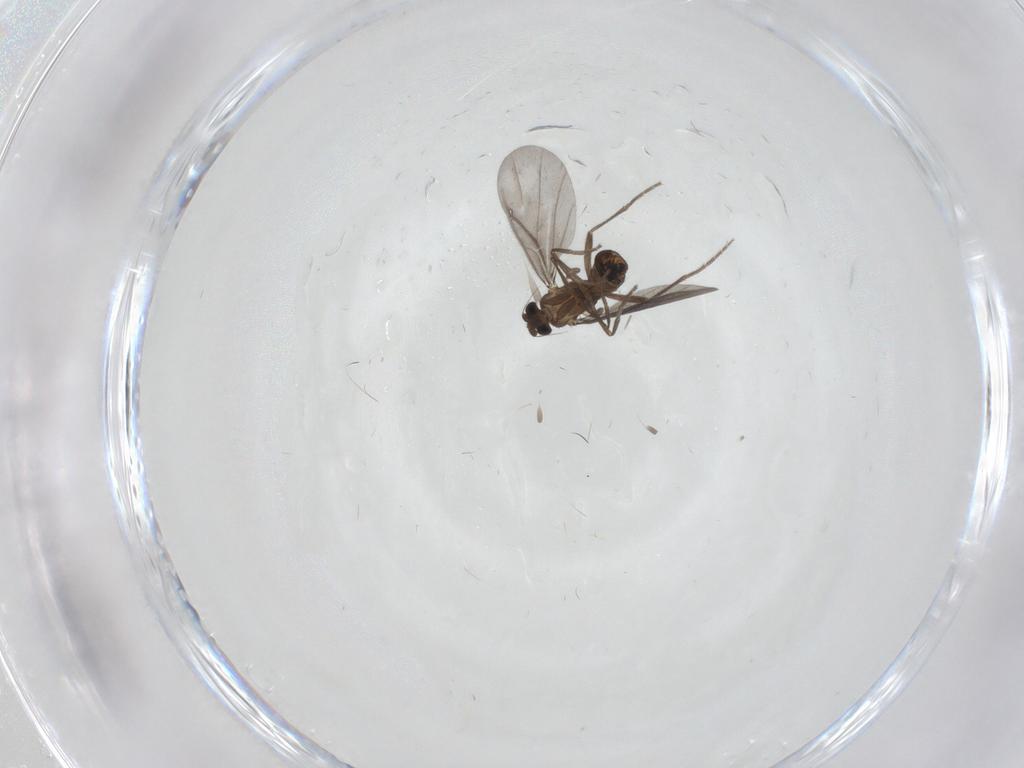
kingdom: Animalia
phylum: Arthropoda
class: Insecta
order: Diptera
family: Phoridae
